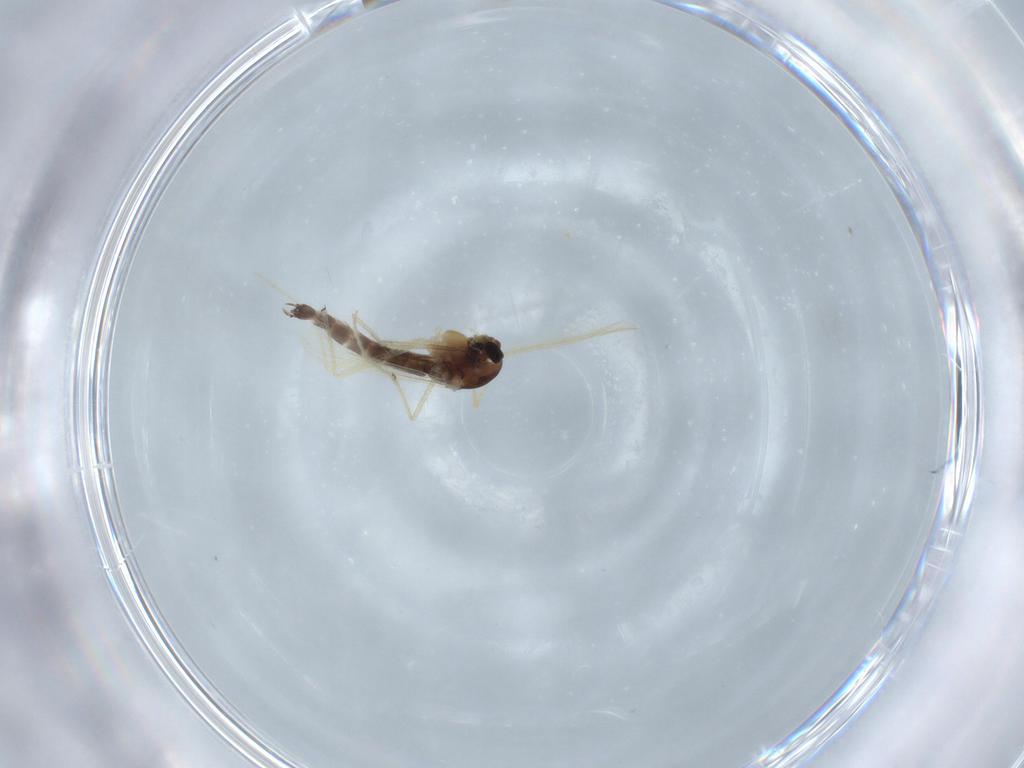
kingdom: Animalia
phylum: Arthropoda
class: Insecta
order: Diptera
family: Chironomidae
